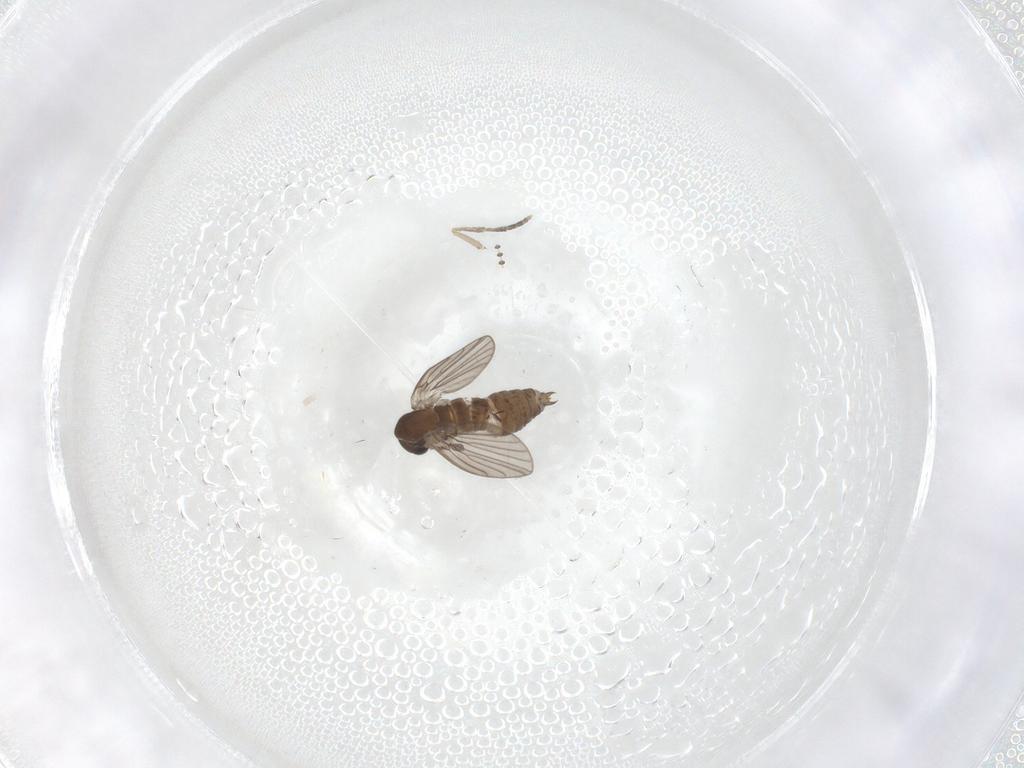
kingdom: Animalia
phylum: Arthropoda
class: Insecta
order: Diptera
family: Psychodidae
